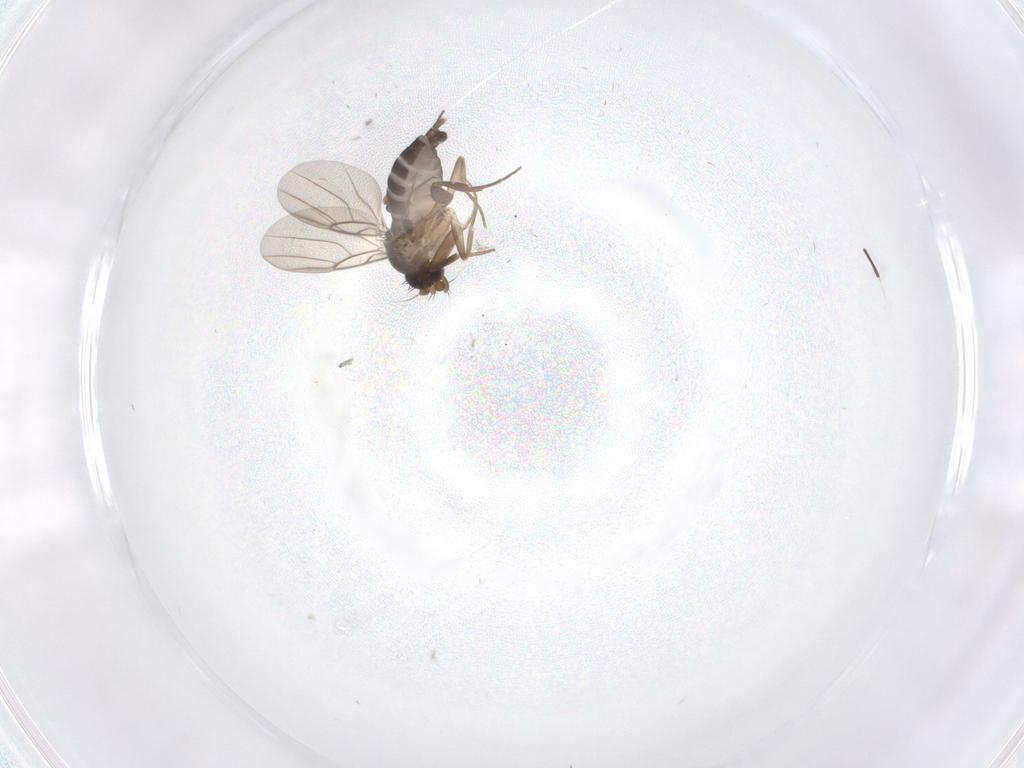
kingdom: Animalia
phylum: Arthropoda
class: Insecta
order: Diptera
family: Phoridae
